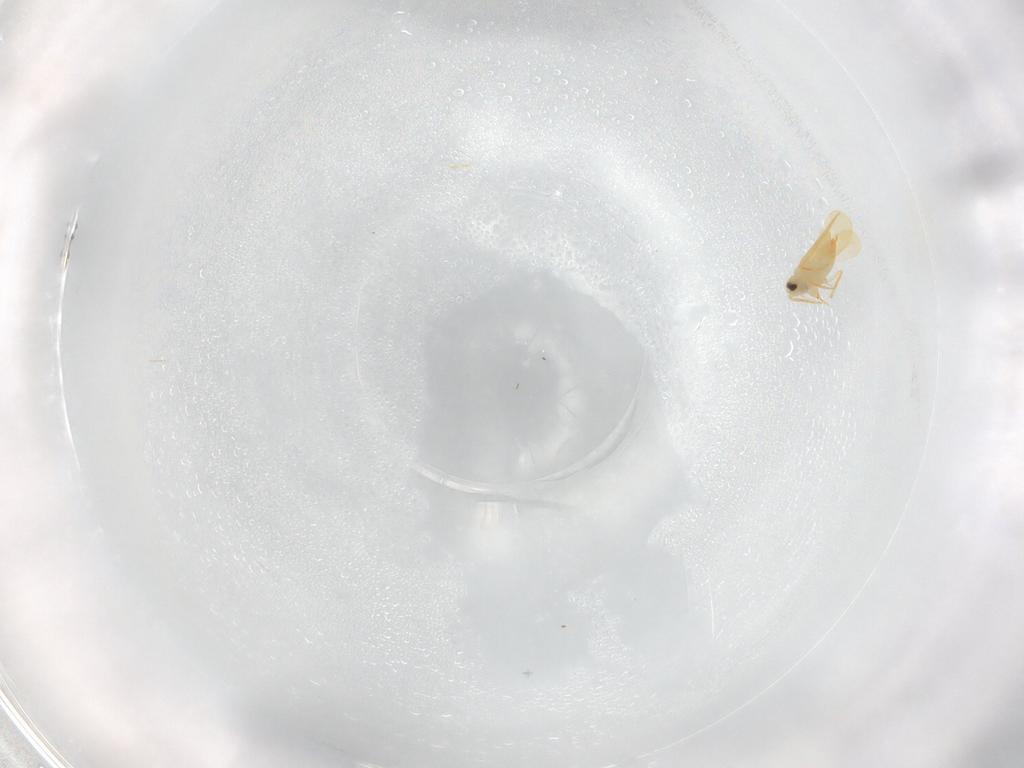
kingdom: Animalia
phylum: Arthropoda
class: Insecta
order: Hemiptera
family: Aleyrodidae
